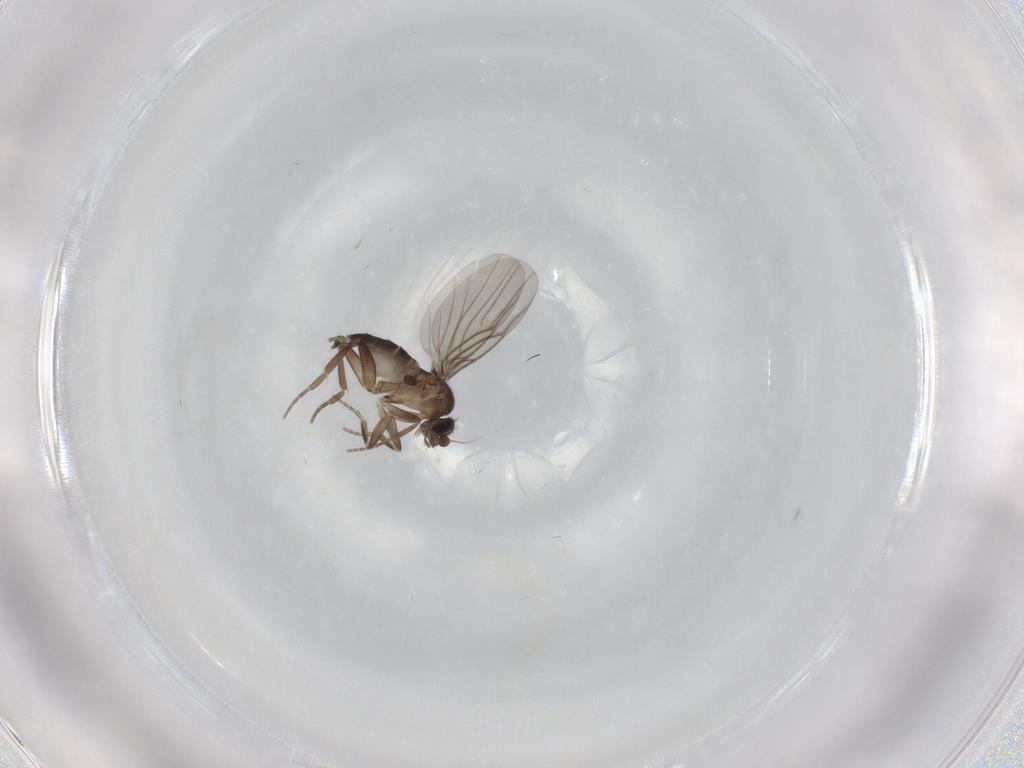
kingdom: Animalia
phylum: Arthropoda
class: Insecta
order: Diptera
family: Phoridae
